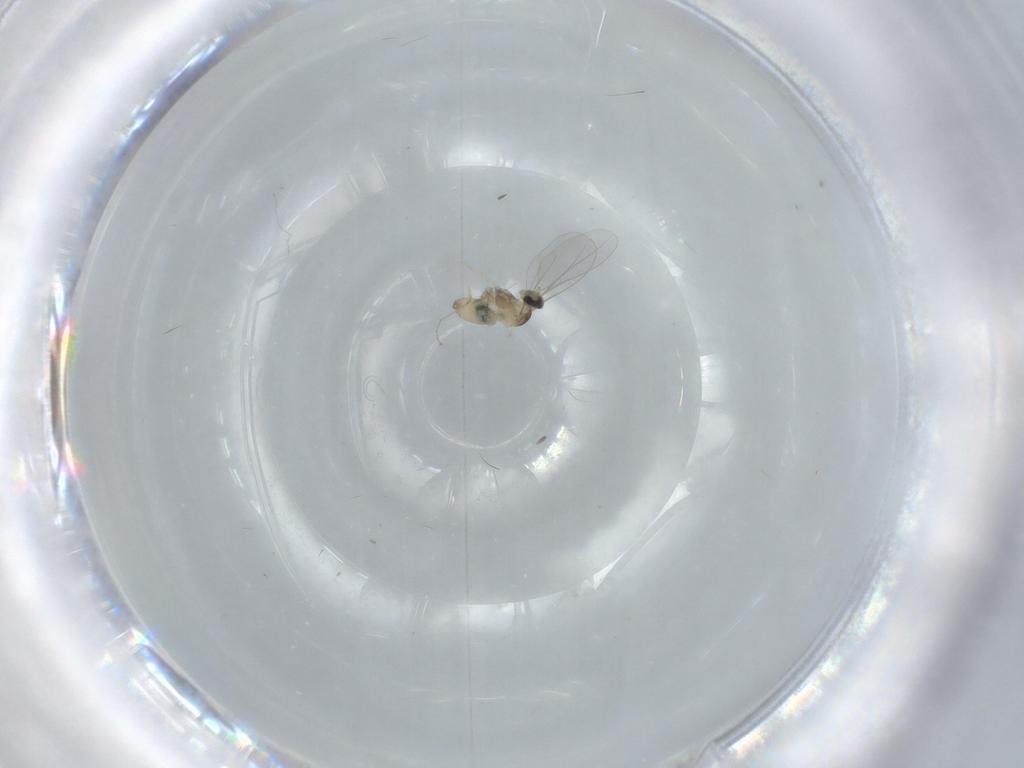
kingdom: Animalia
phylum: Arthropoda
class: Insecta
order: Diptera
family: Cecidomyiidae
